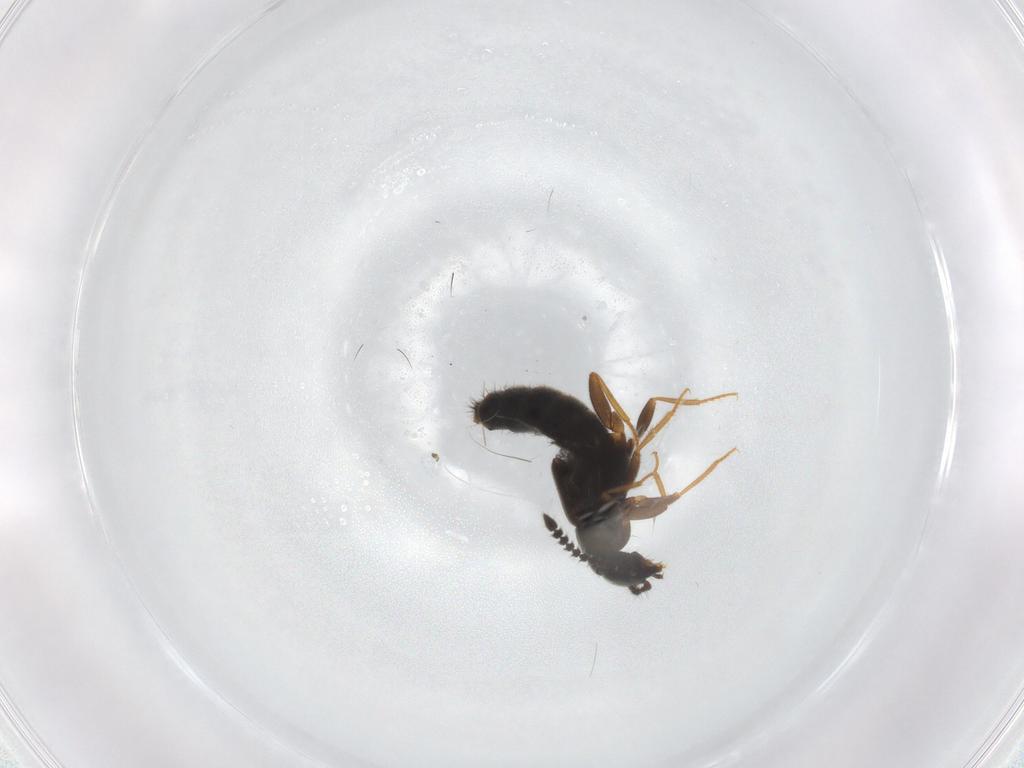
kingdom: Animalia
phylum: Arthropoda
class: Insecta
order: Coleoptera
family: Staphylinidae
